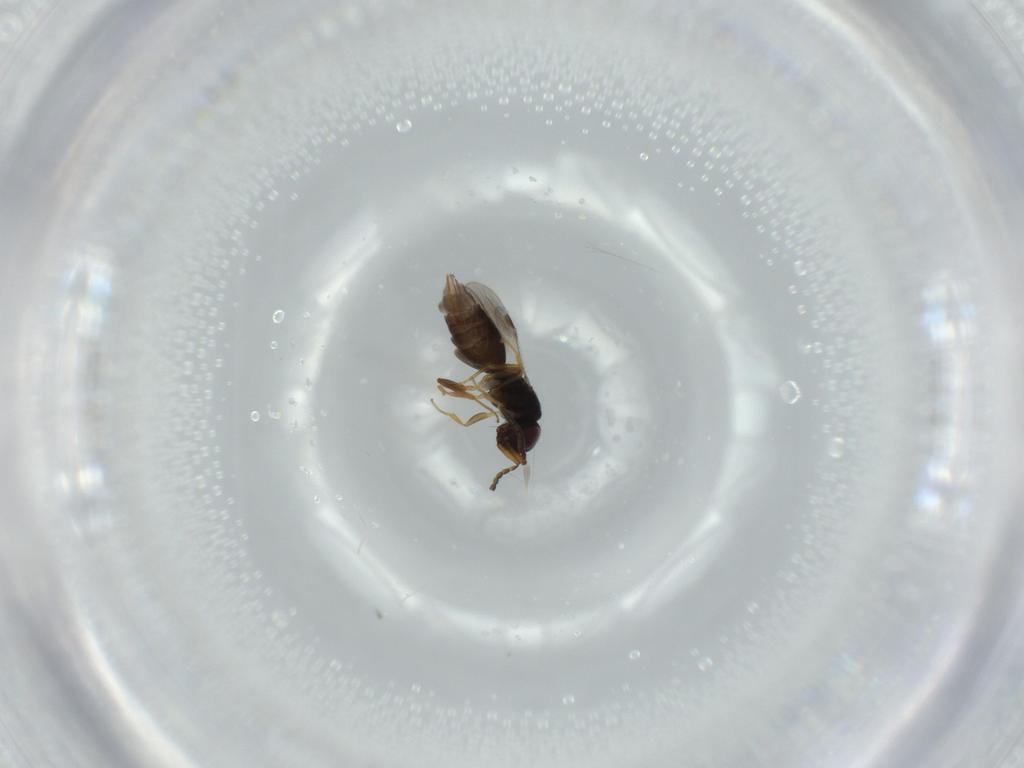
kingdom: Animalia
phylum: Arthropoda
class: Insecta
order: Hymenoptera
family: Megaspilidae
